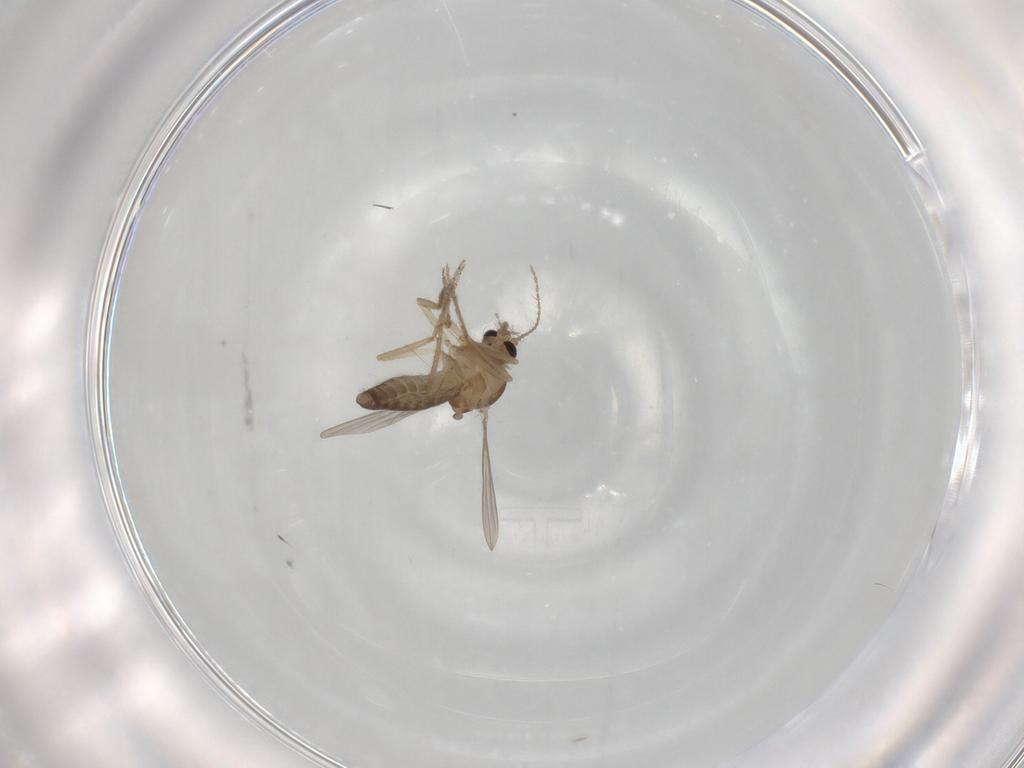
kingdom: Animalia
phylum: Arthropoda
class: Insecta
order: Diptera
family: Ceratopogonidae
